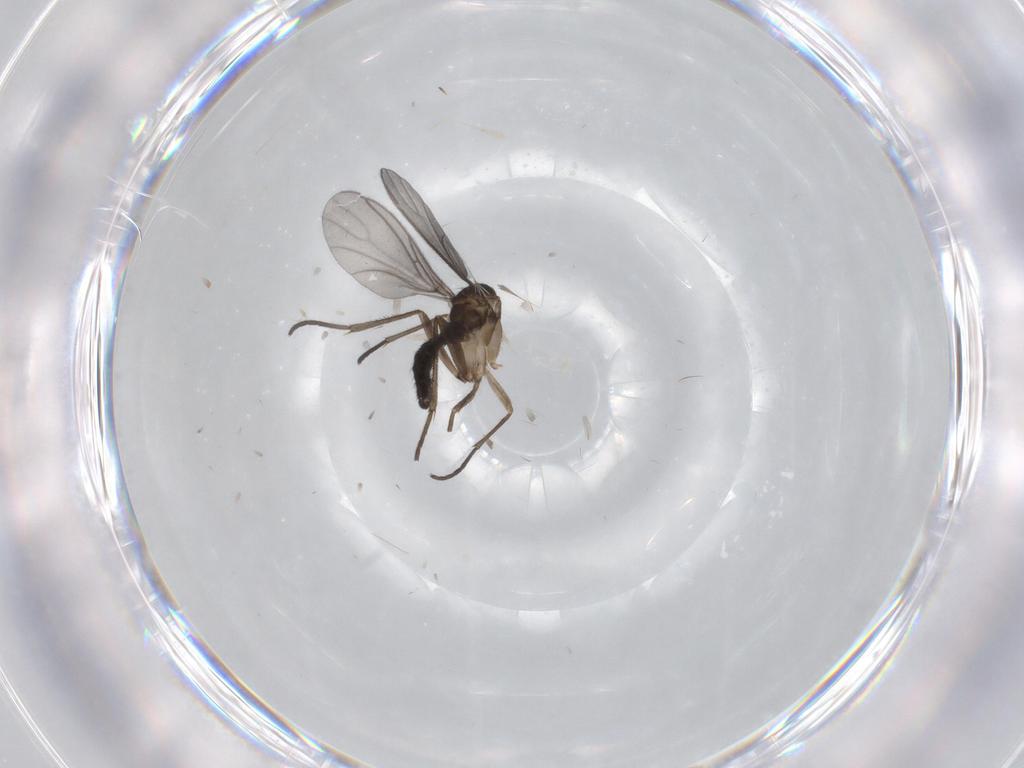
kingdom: Animalia
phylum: Arthropoda
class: Insecta
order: Diptera
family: Sciaridae
